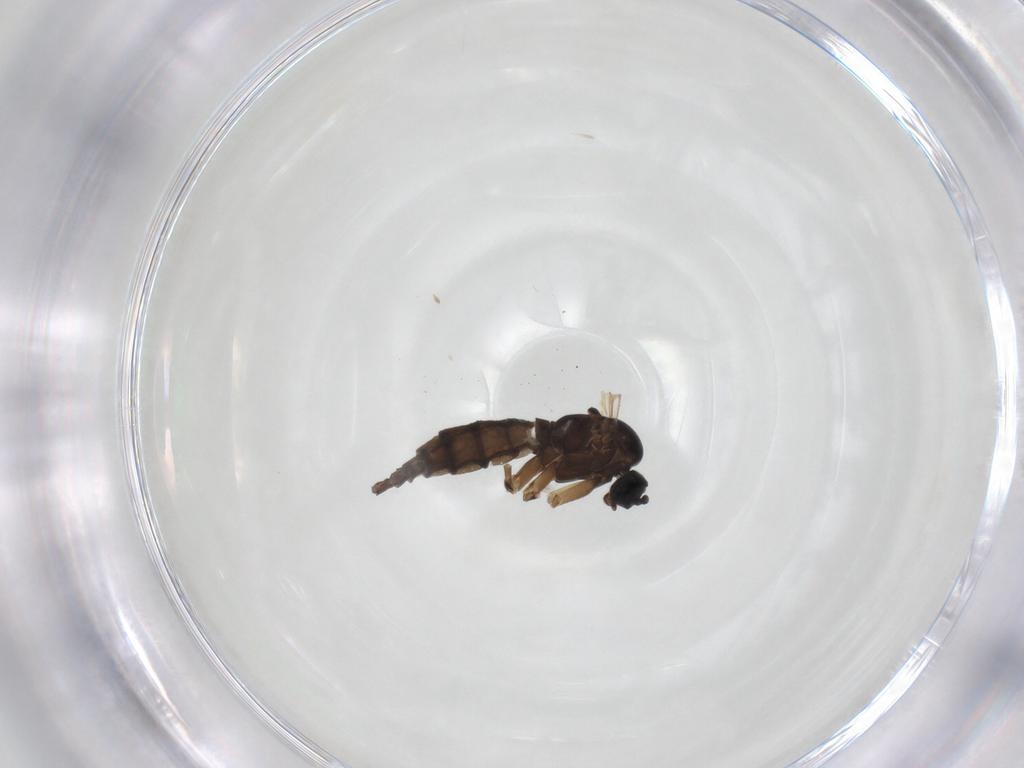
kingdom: Animalia
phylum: Arthropoda
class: Insecta
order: Diptera
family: Sciaridae
